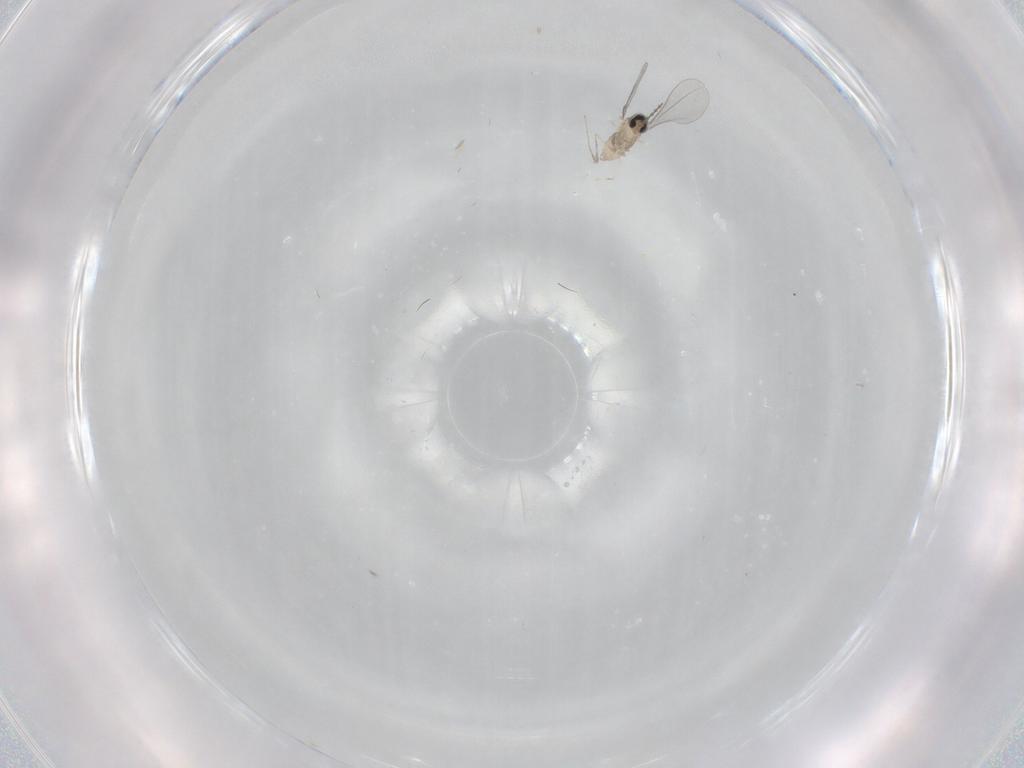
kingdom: Animalia
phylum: Arthropoda
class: Insecta
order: Diptera
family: Cecidomyiidae
